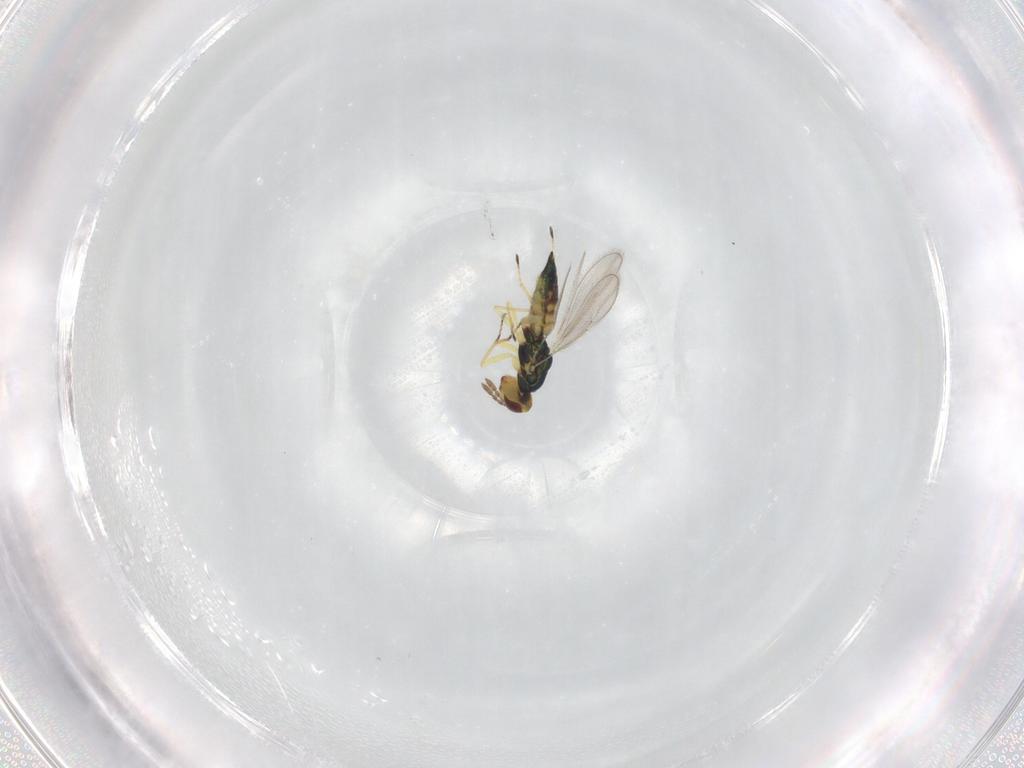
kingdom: Animalia
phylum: Arthropoda
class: Insecta
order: Hymenoptera
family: Eulophidae
